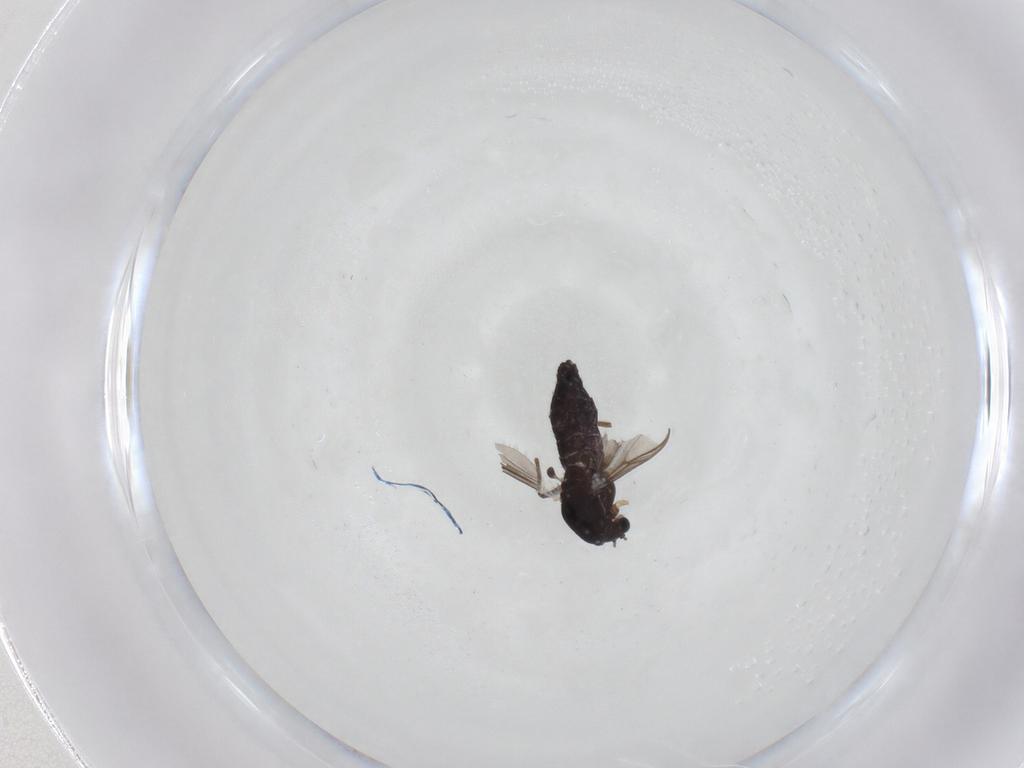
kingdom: Animalia
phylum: Arthropoda
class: Insecta
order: Diptera
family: Chironomidae
